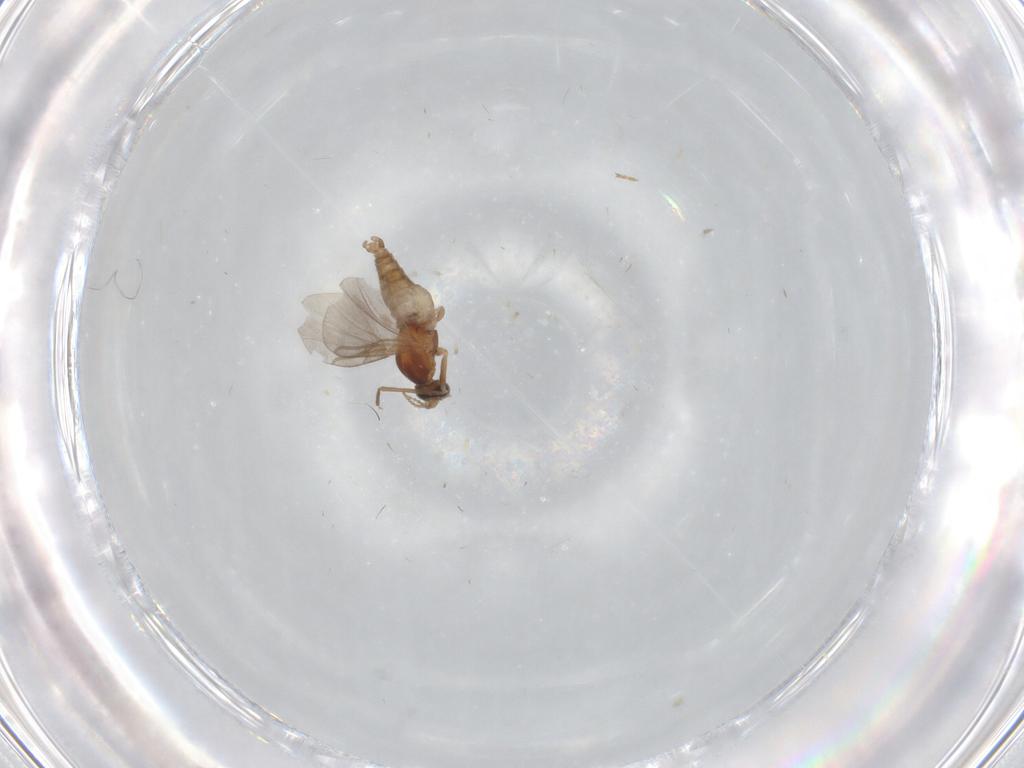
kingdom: Animalia
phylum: Arthropoda
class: Insecta
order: Diptera
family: Cecidomyiidae
